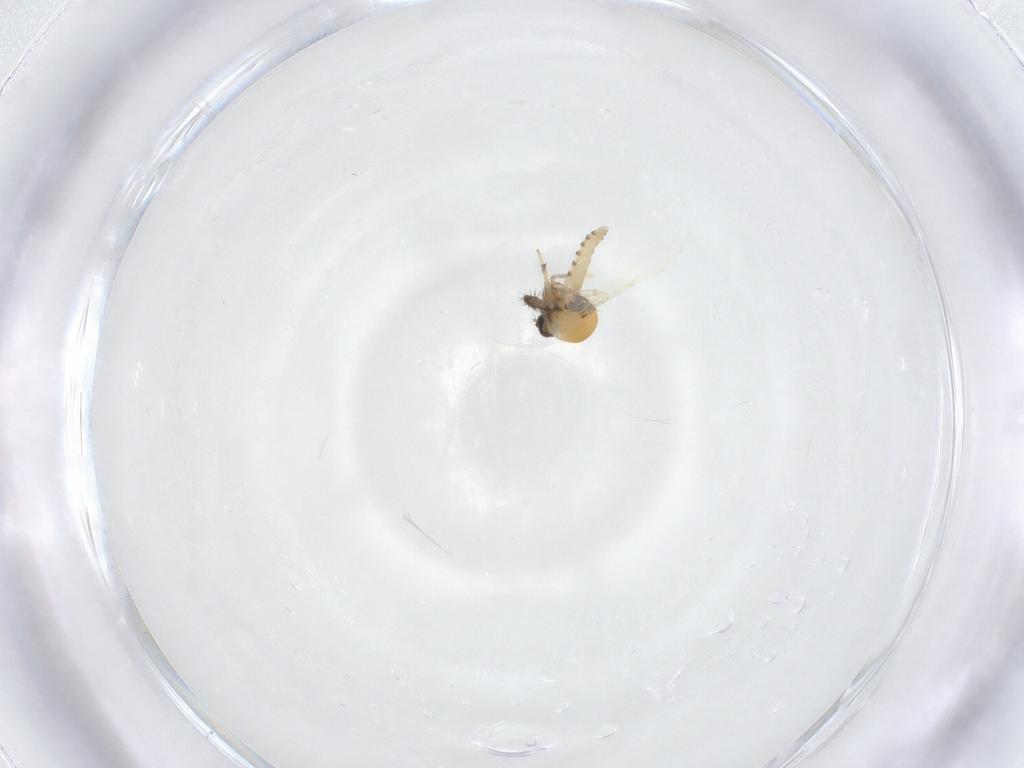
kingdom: Animalia
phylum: Arthropoda
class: Insecta
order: Diptera
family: Ceratopogonidae
